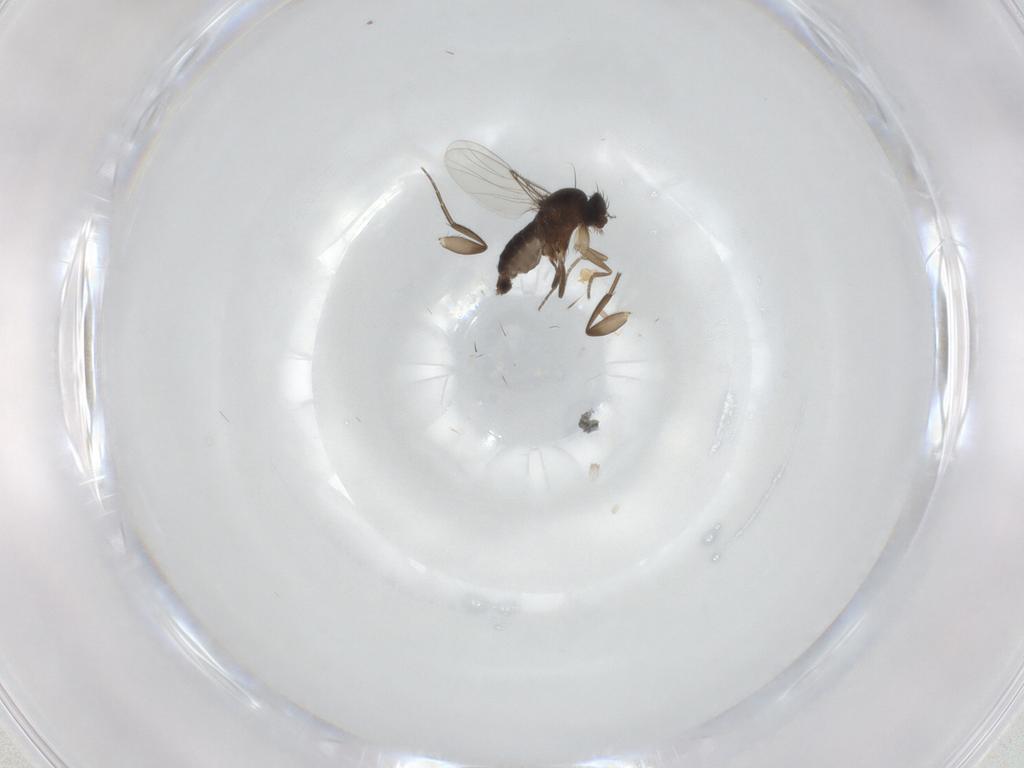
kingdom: Animalia
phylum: Arthropoda
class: Insecta
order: Diptera
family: Phoridae
